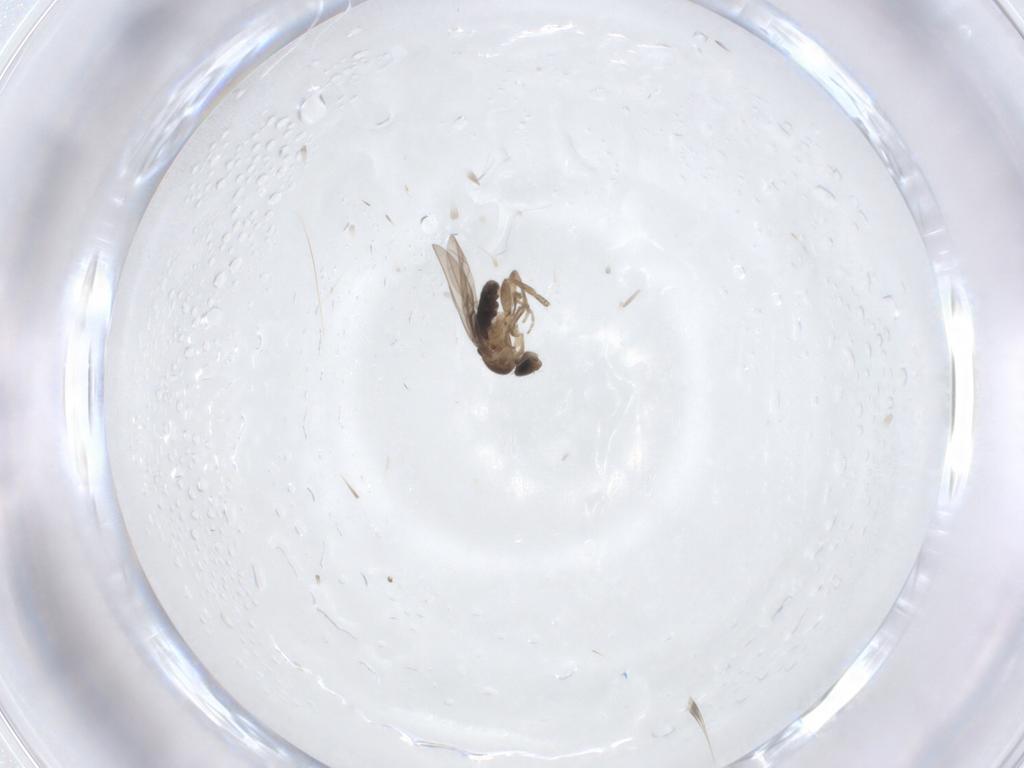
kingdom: Animalia
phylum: Arthropoda
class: Insecta
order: Diptera
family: Phoridae
